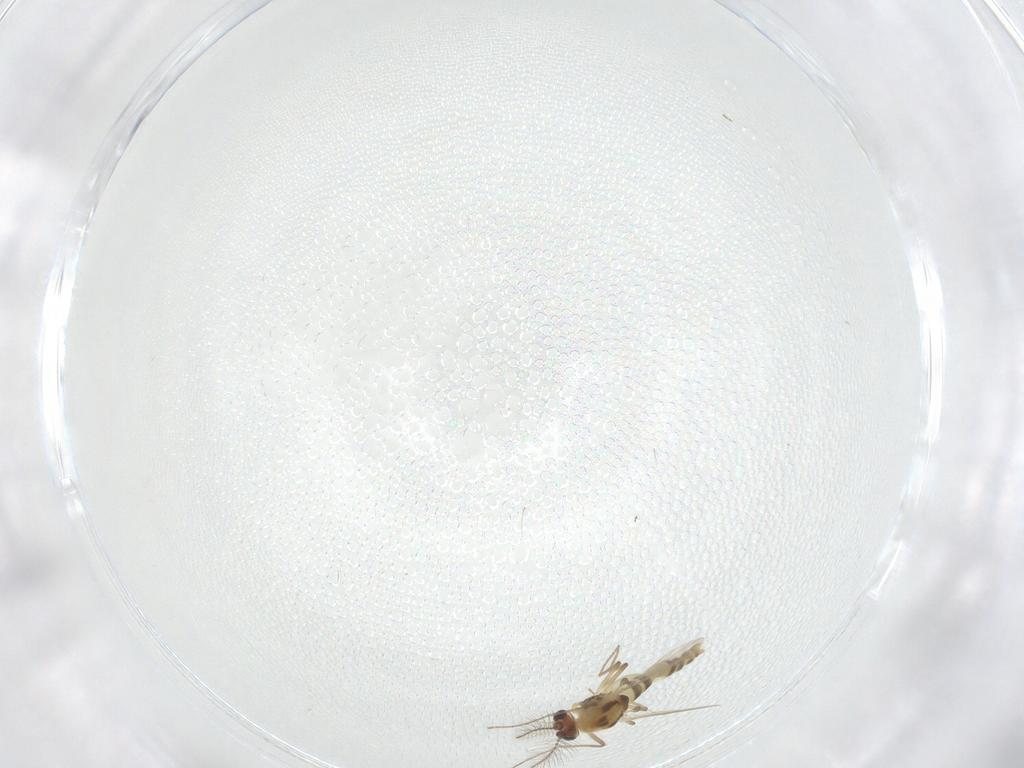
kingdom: Animalia
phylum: Arthropoda
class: Insecta
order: Diptera
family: Chironomidae
